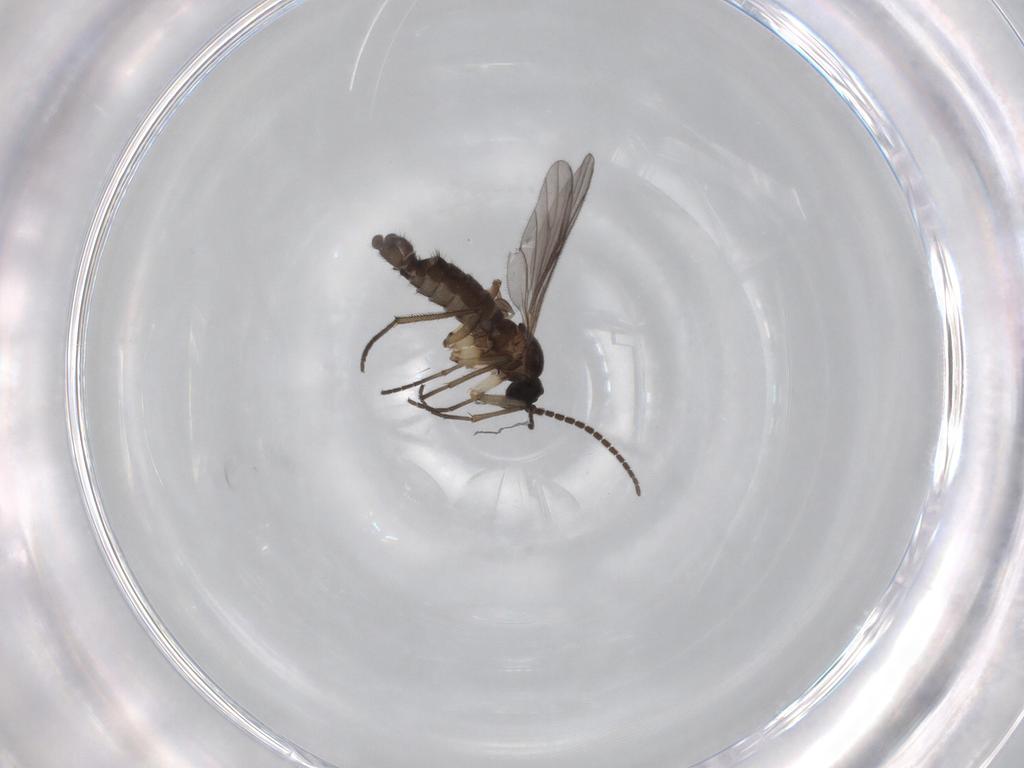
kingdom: Animalia
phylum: Arthropoda
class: Insecta
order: Diptera
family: Sciaridae
